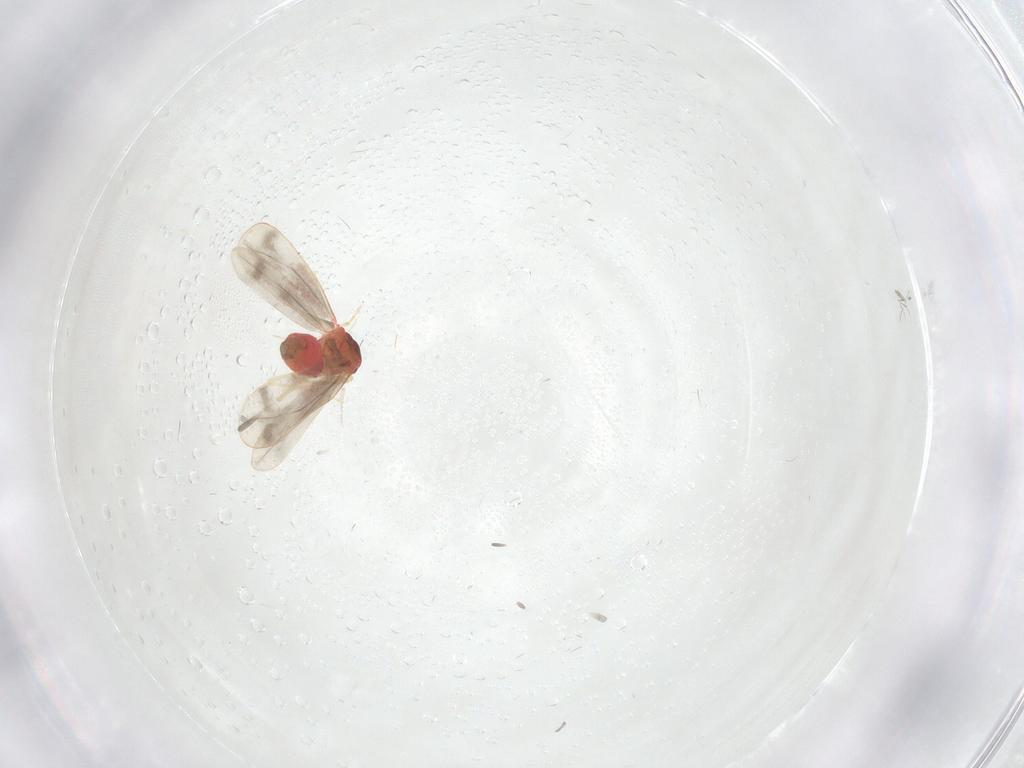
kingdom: Animalia
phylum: Arthropoda
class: Insecta
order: Hemiptera
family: Aleyrodidae
